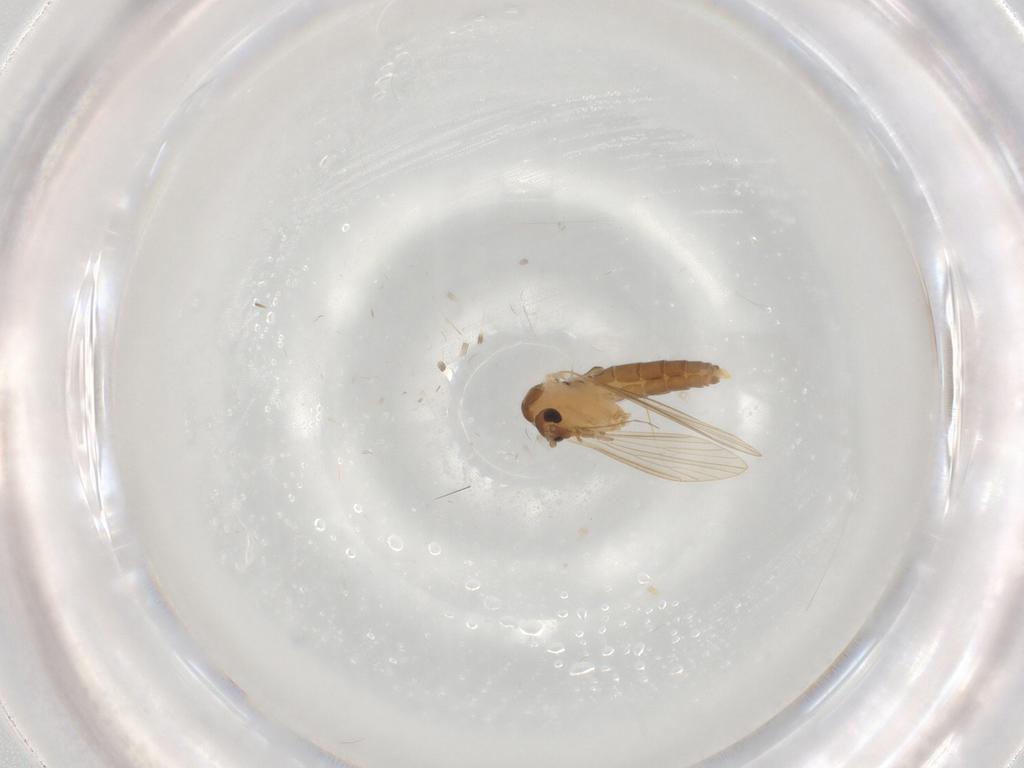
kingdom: Animalia
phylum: Arthropoda
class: Insecta
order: Diptera
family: Psychodidae
